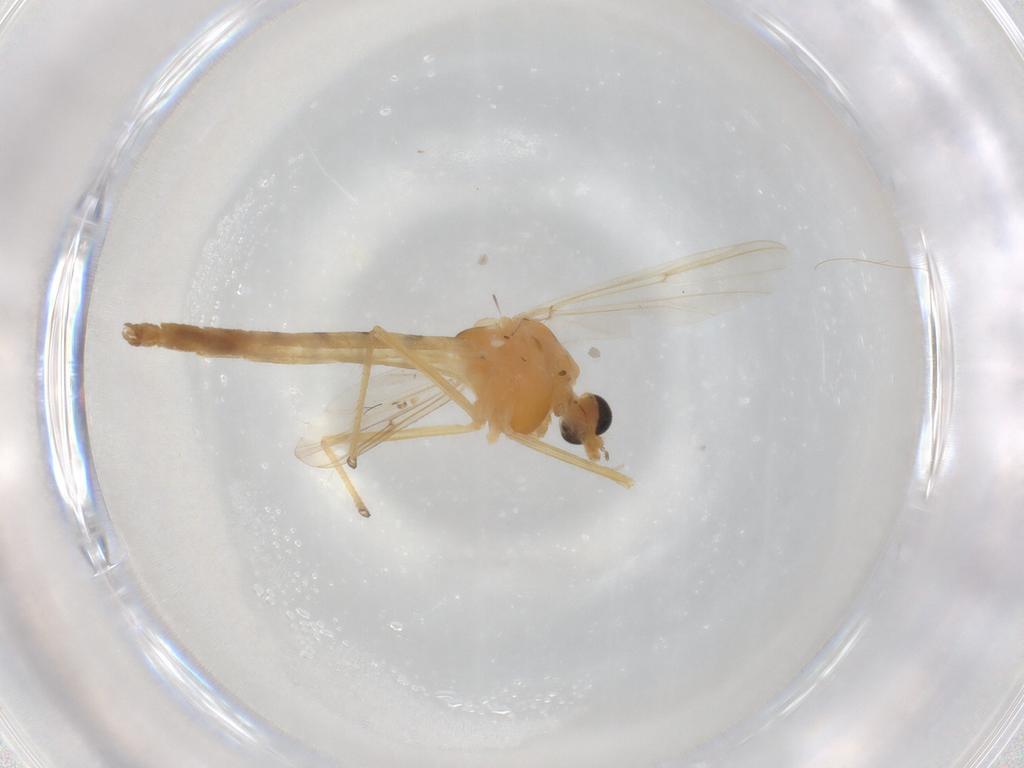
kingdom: Animalia
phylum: Arthropoda
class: Insecta
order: Diptera
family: Chironomidae
